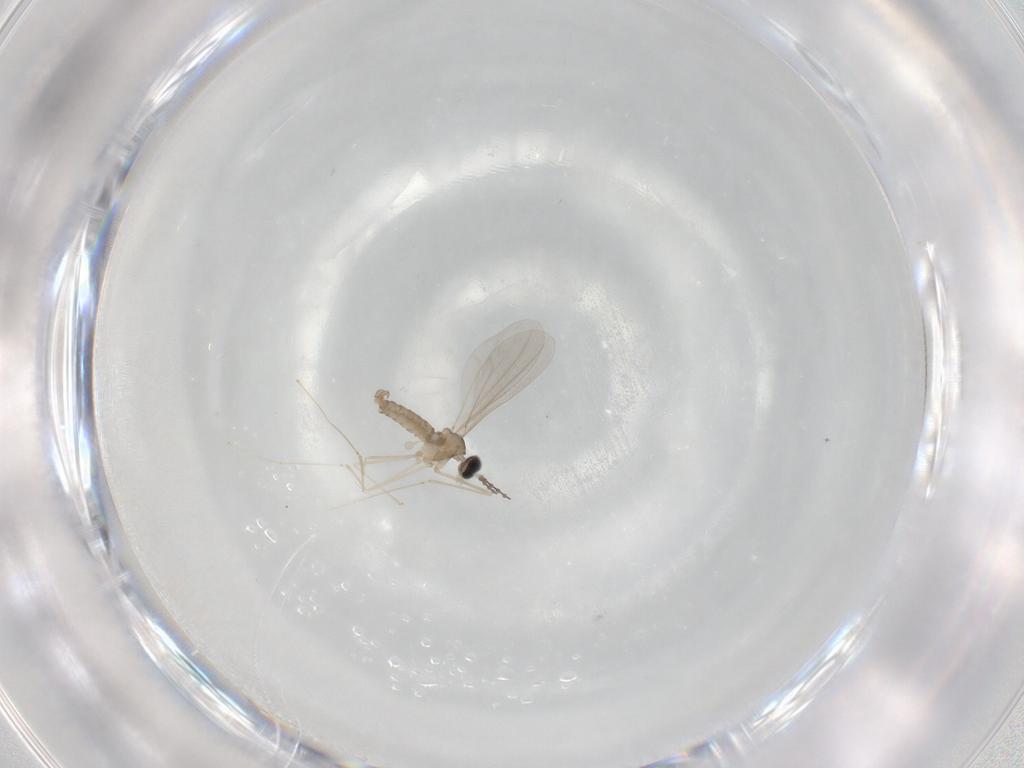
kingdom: Animalia
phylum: Arthropoda
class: Insecta
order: Diptera
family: Cecidomyiidae
